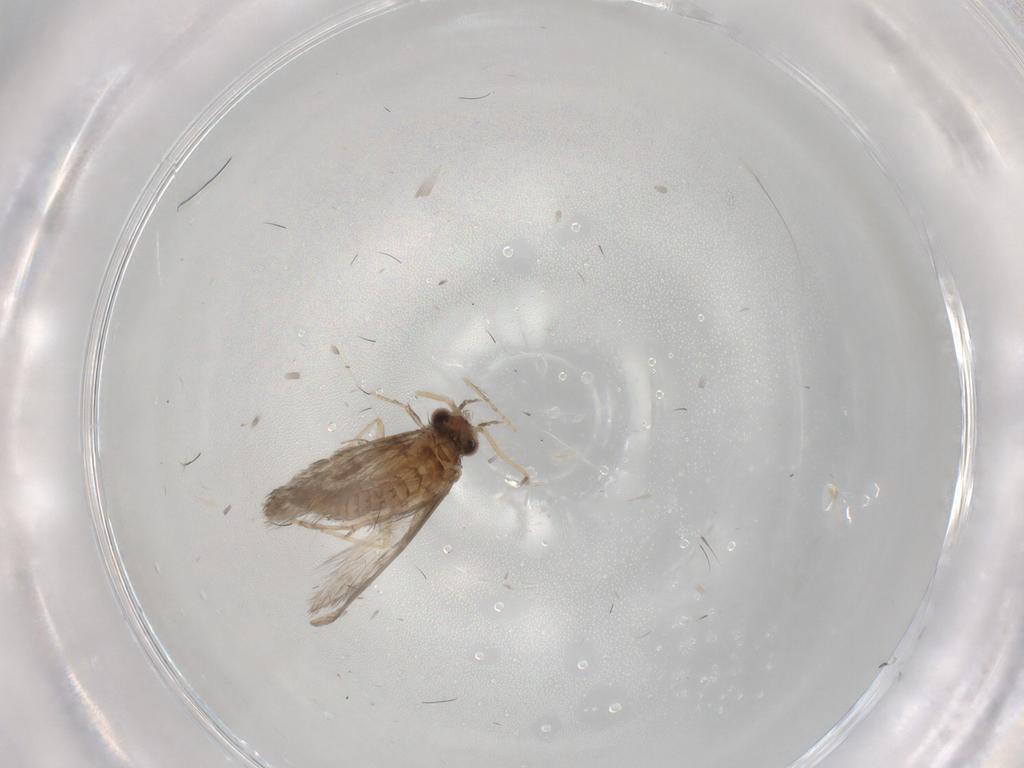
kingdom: Animalia
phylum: Arthropoda
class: Insecta
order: Trichoptera
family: Hydroptilidae
